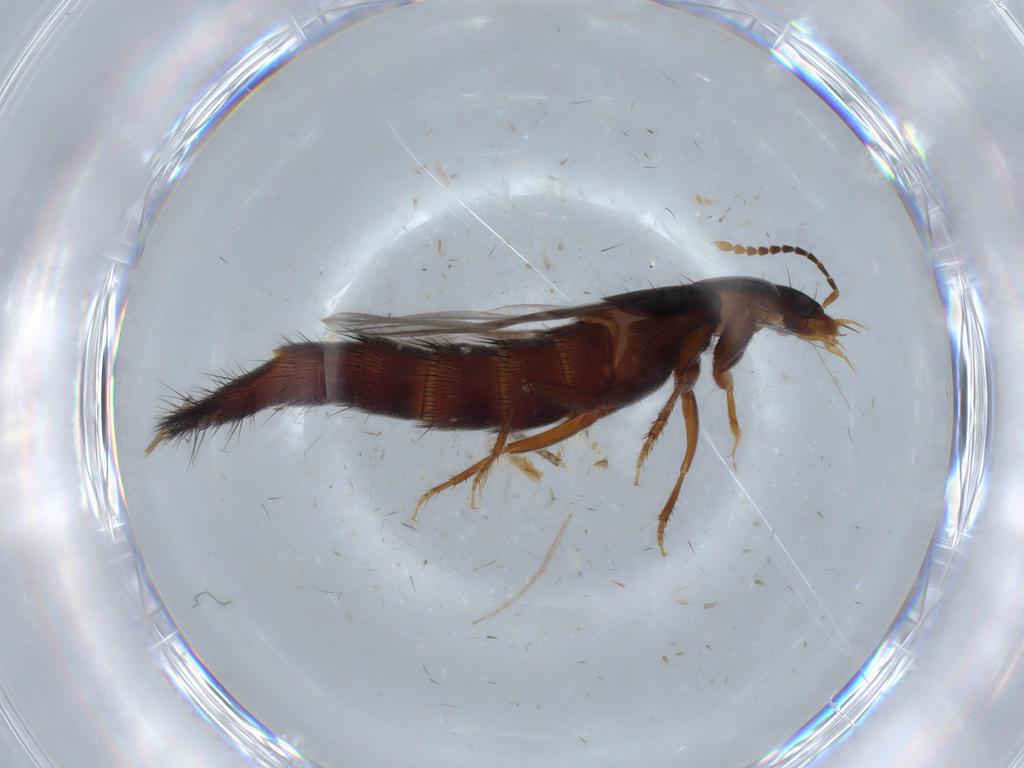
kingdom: Animalia
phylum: Arthropoda
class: Insecta
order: Coleoptera
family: Staphylinidae
